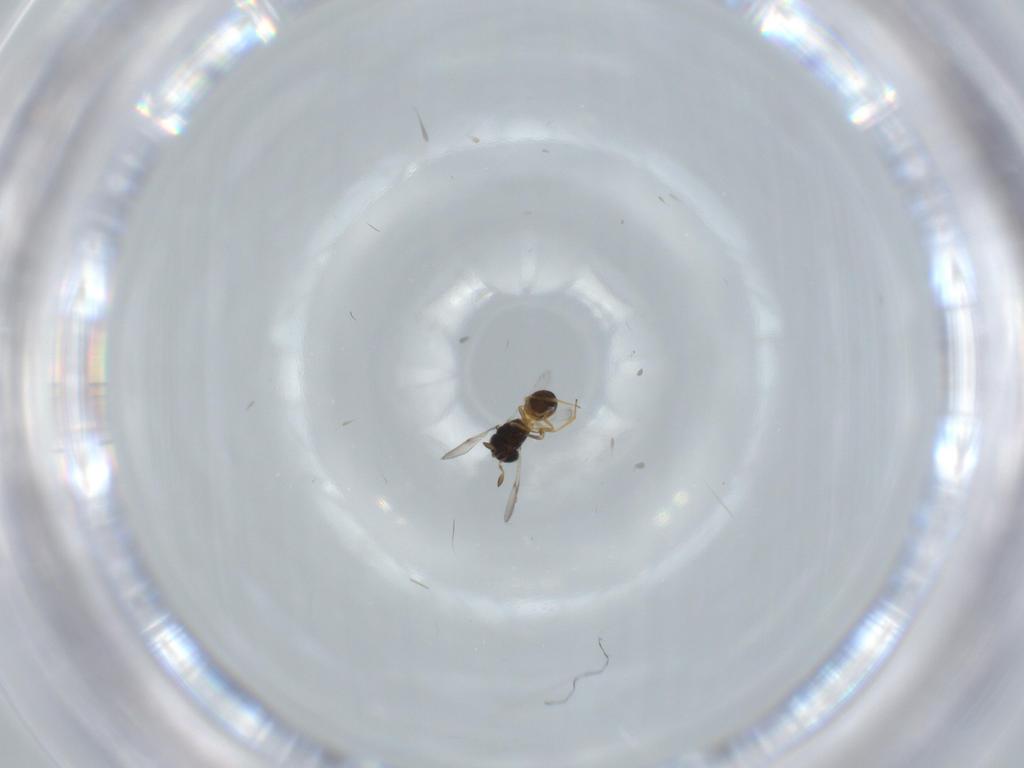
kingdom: Animalia
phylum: Arthropoda
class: Insecta
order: Hymenoptera
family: Scelionidae
